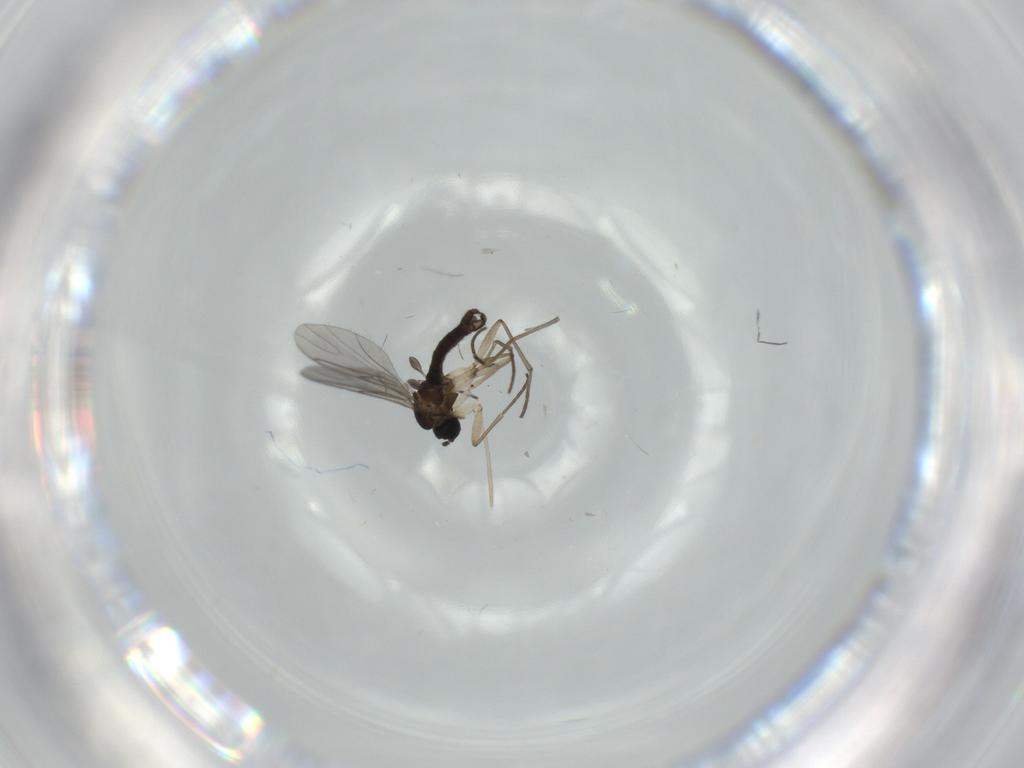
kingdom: Animalia
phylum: Arthropoda
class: Insecta
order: Diptera
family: Sciaridae
